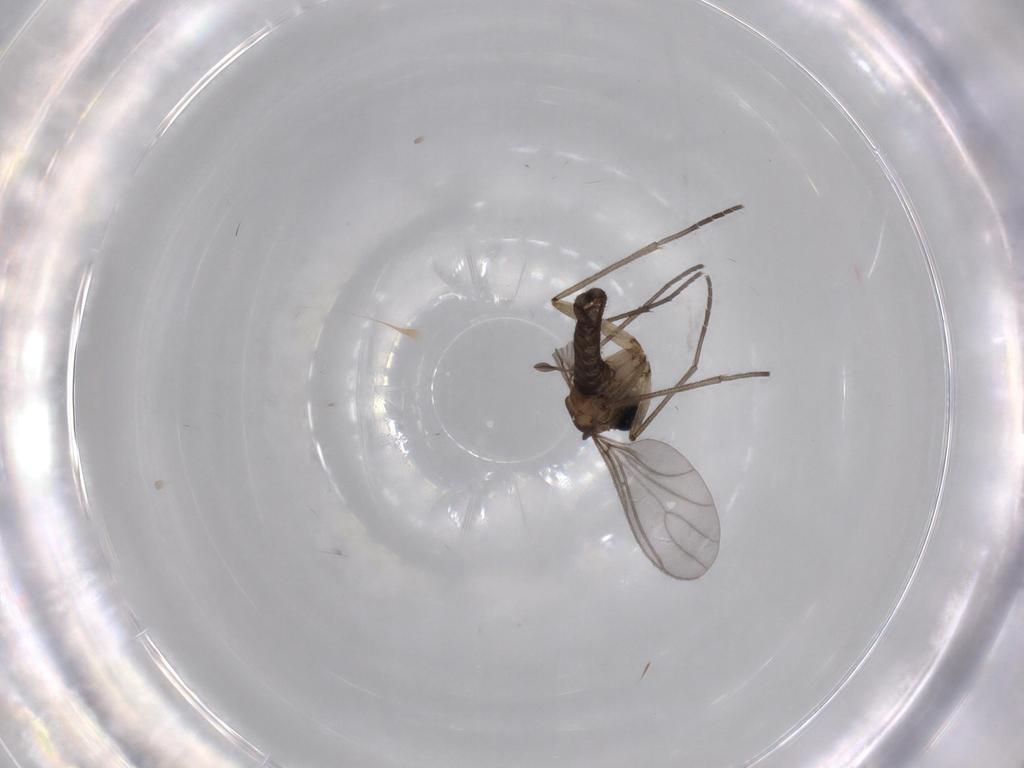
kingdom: Animalia
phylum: Arthropoda
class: Insecta
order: Diptera
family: Sciaridae
